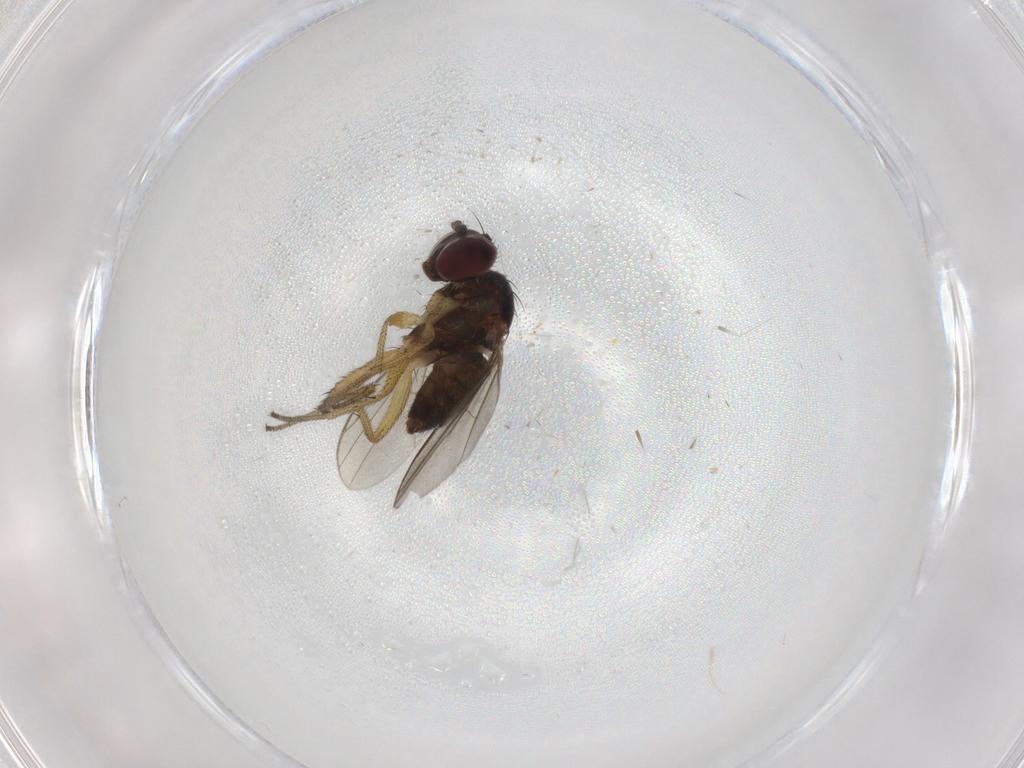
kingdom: Animalia
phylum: Arthropoda
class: Insecta
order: Diptera
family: Dolichopodidae
